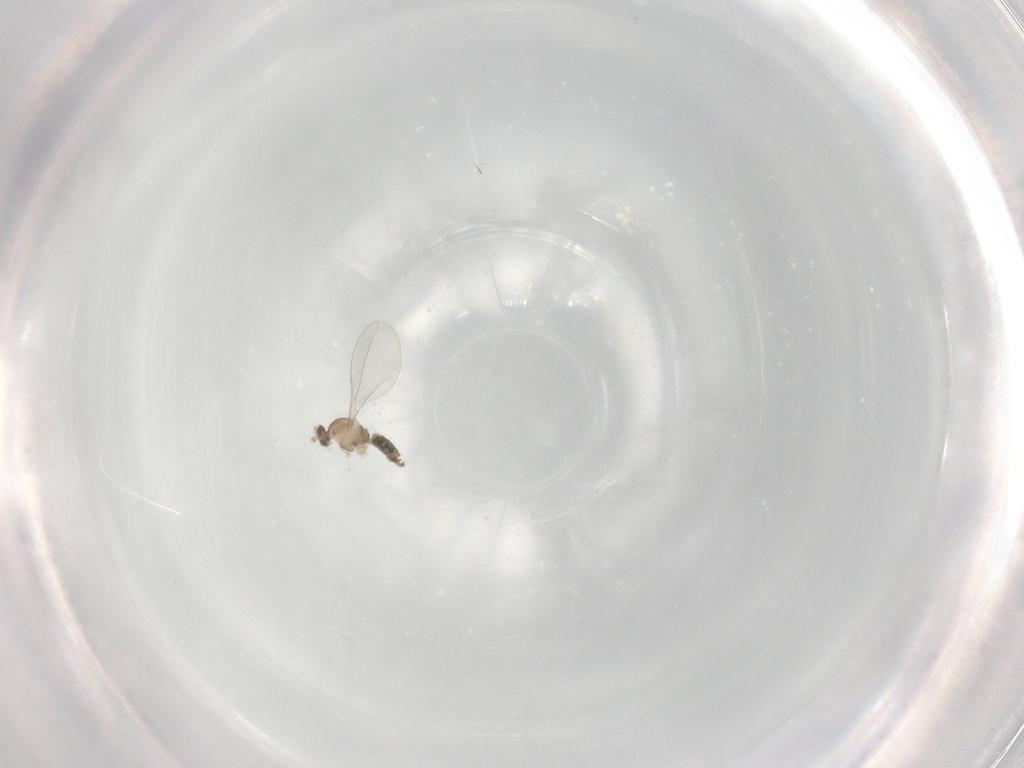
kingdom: Animalia
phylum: Arthropoda
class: Insecta
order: Diptera
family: Cecidomyiidae
